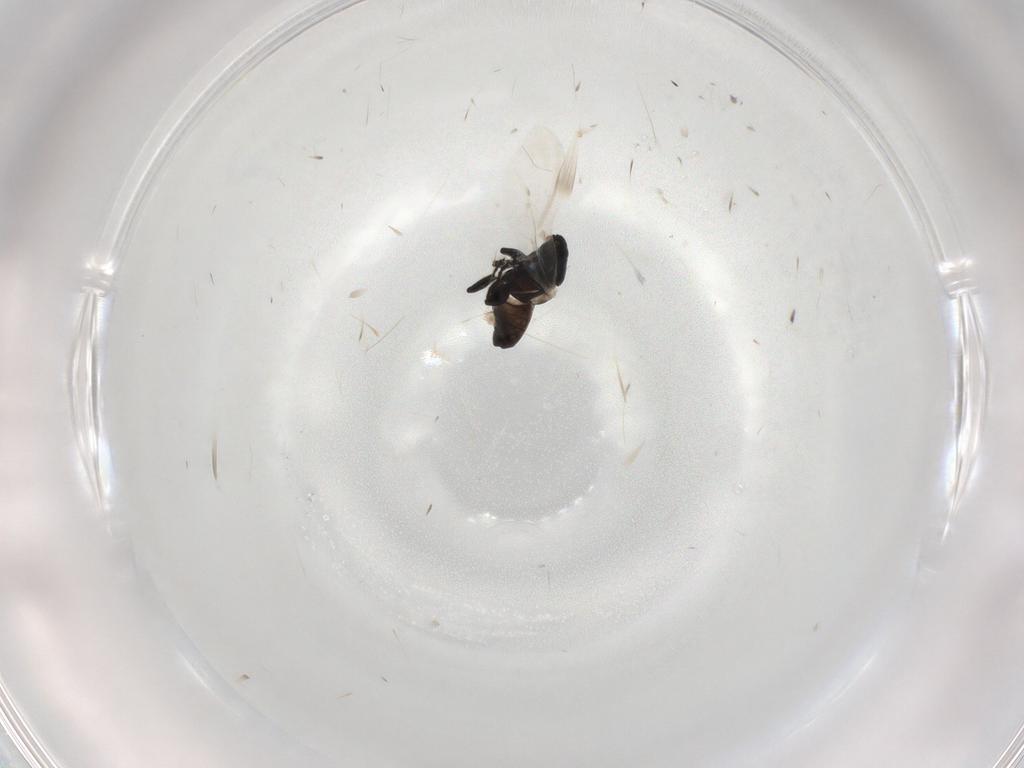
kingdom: Animalia
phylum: Arthropoda
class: Insecta
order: Coleoptera
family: Curculionidae
